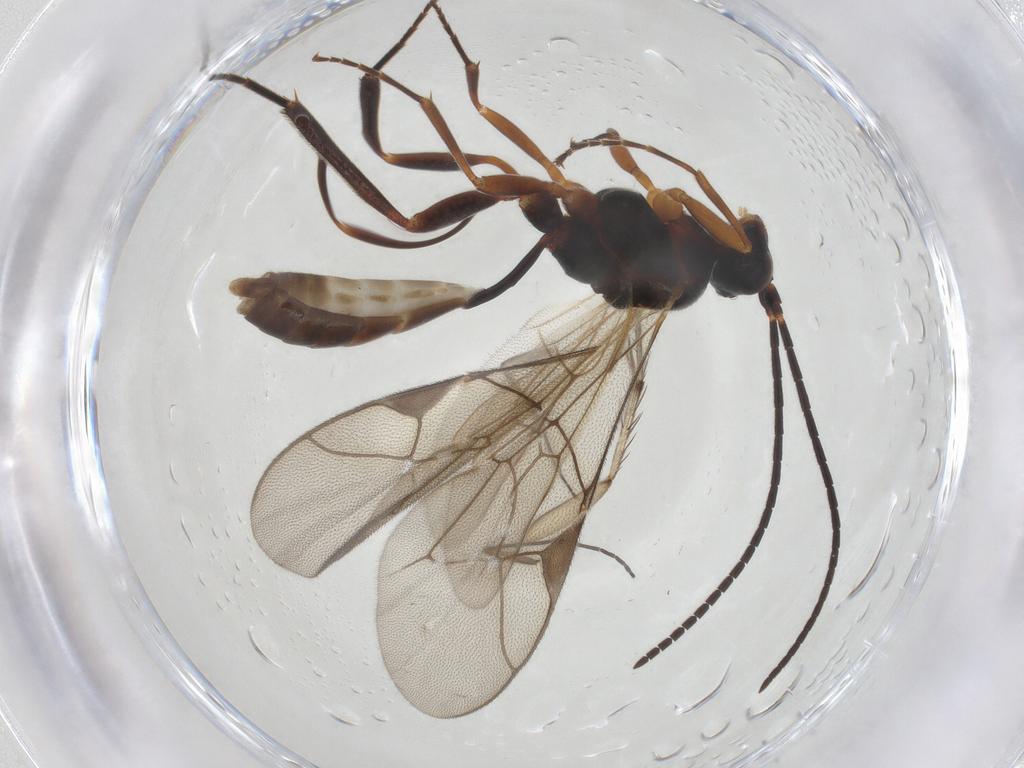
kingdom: Animalia
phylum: Arthropoda
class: Insecta
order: Hymenoptera
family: Ichneumonidae
